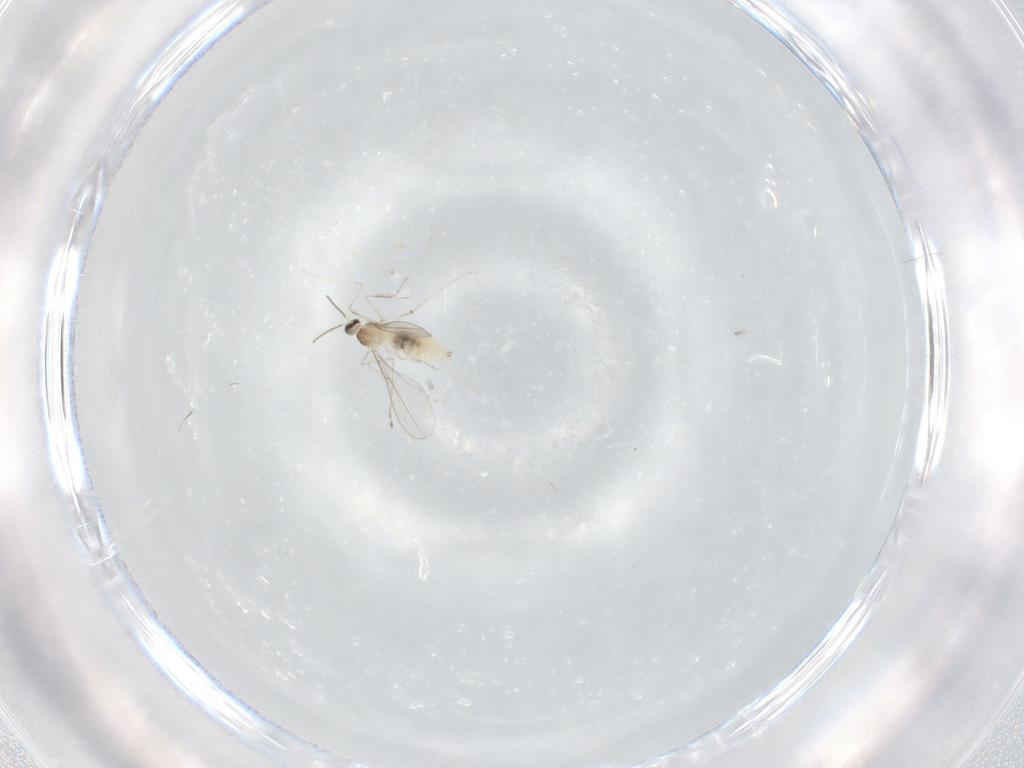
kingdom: Animalia
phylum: Arthropoda
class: Insecta
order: Diptera
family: Cecidomyiidae
